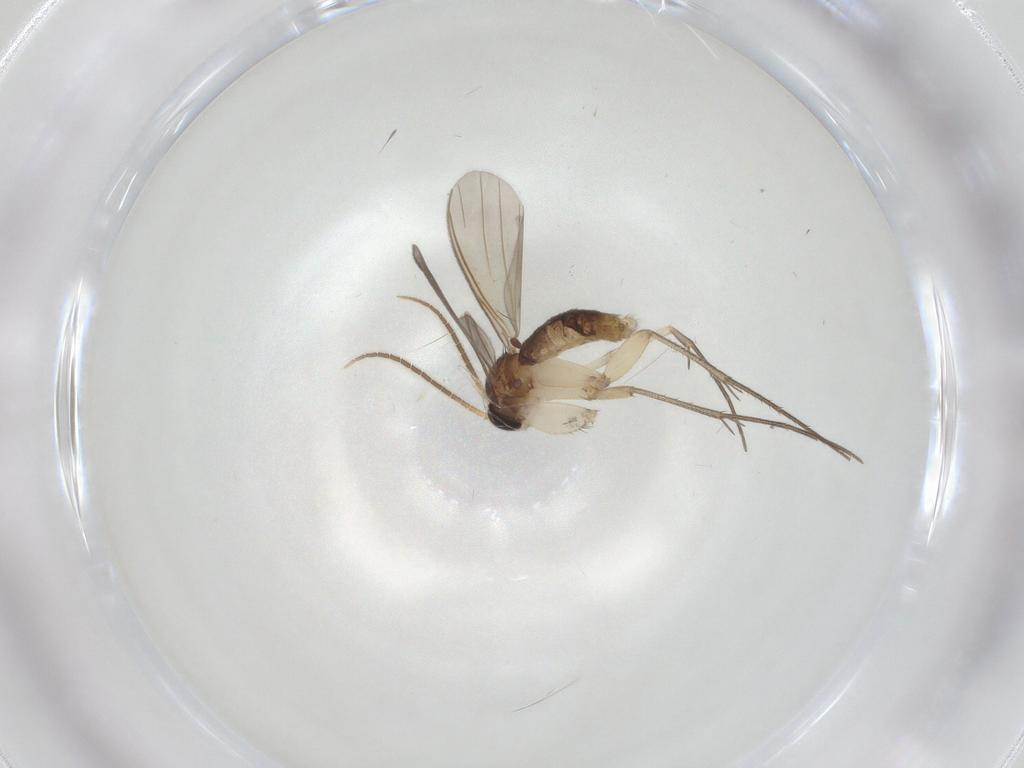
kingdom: Animalia
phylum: Arthropoda
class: Insecta
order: Diptera
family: Mycetophilidae
